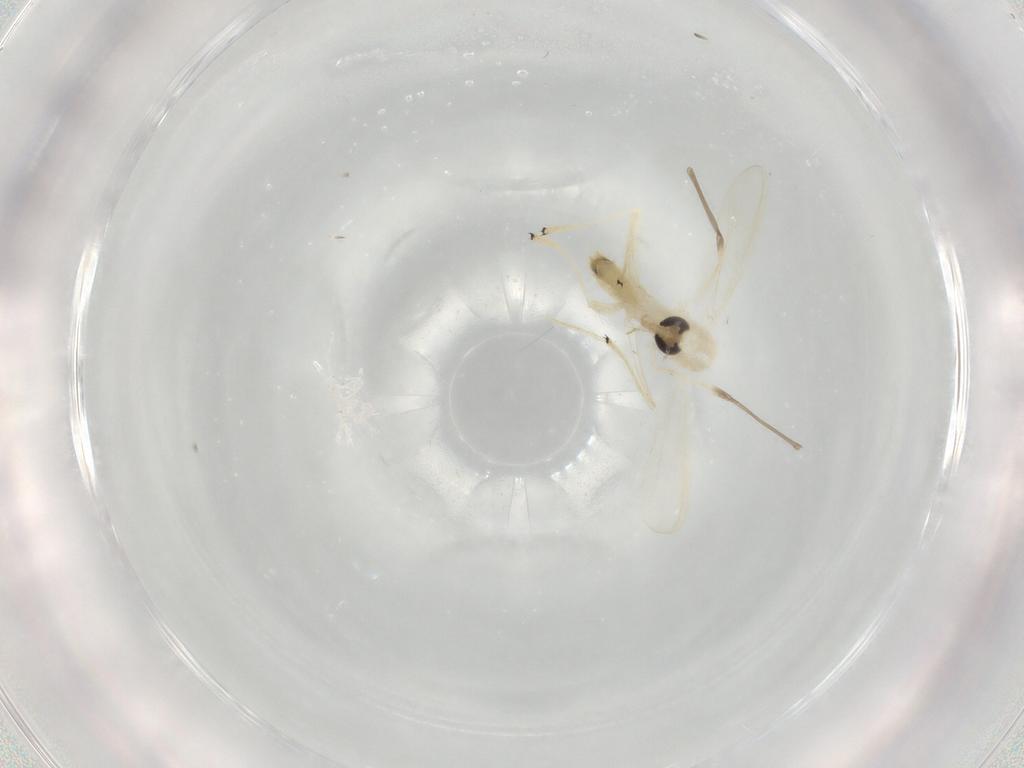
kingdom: Animalia
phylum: Arthropoda
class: Insecta
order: Diptera
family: Chironomidae
